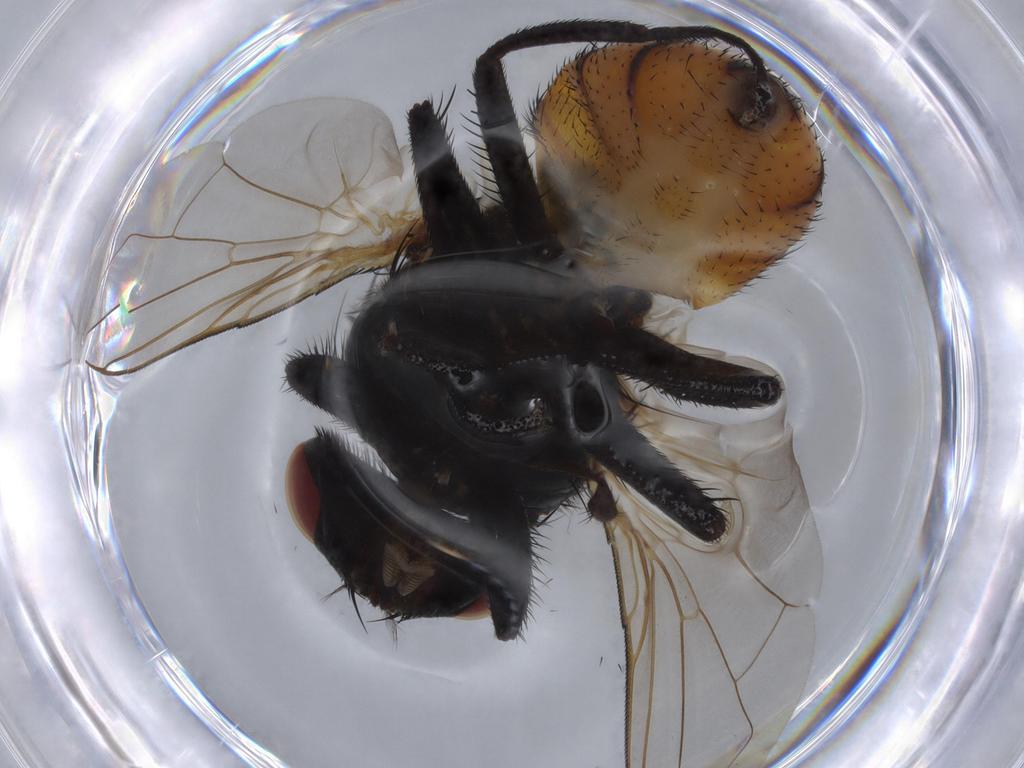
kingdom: Animalia
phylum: Arthropoda
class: Insecta
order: Diptera
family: Muscidae
